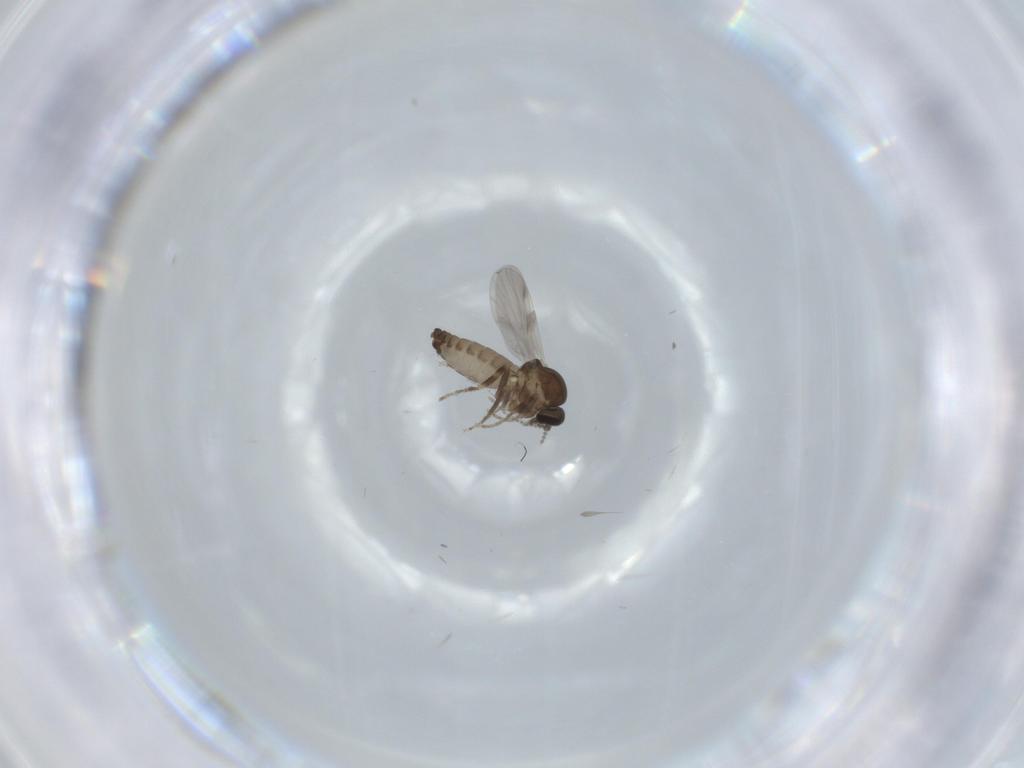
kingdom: Animalia
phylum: Arthropoda
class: Insecta
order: Diptera
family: Ceratopogonidae
